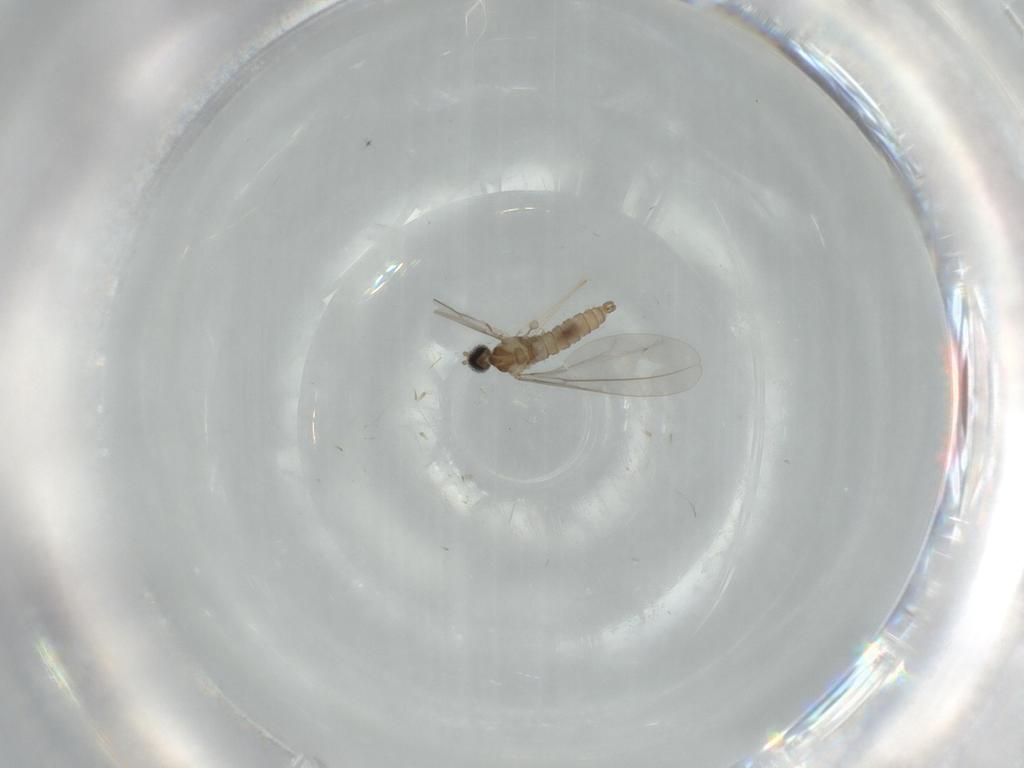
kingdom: Animalia
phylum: Arthropoda
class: Insecta
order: Diptera
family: Cecidomyiidae
